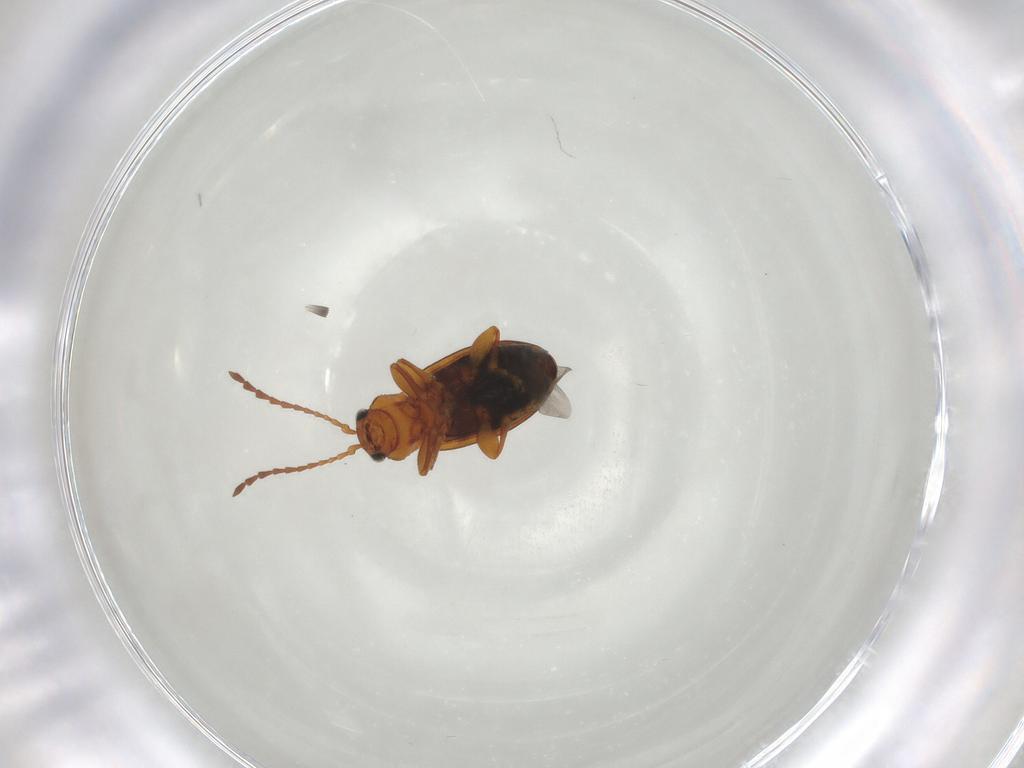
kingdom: Animalia
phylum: Arthropoda
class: Insecta
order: Coleoptera
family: Chrysomelidae
